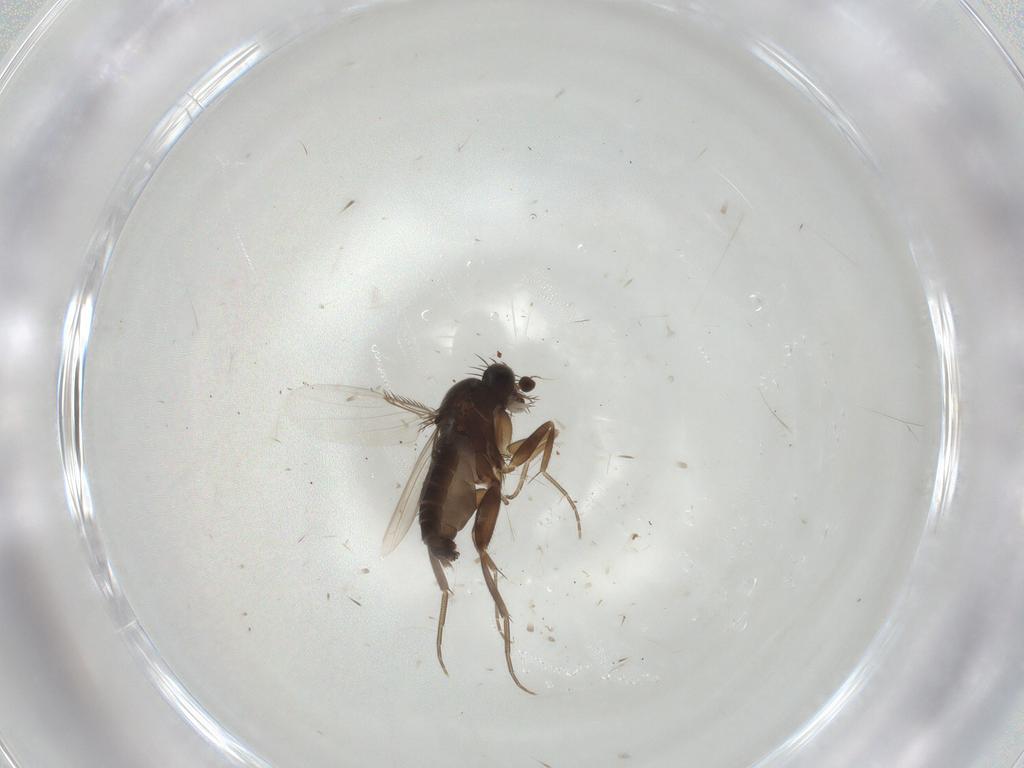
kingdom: Animalia
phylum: Arthropoda
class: Insecta
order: Diptera
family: Phoridae
